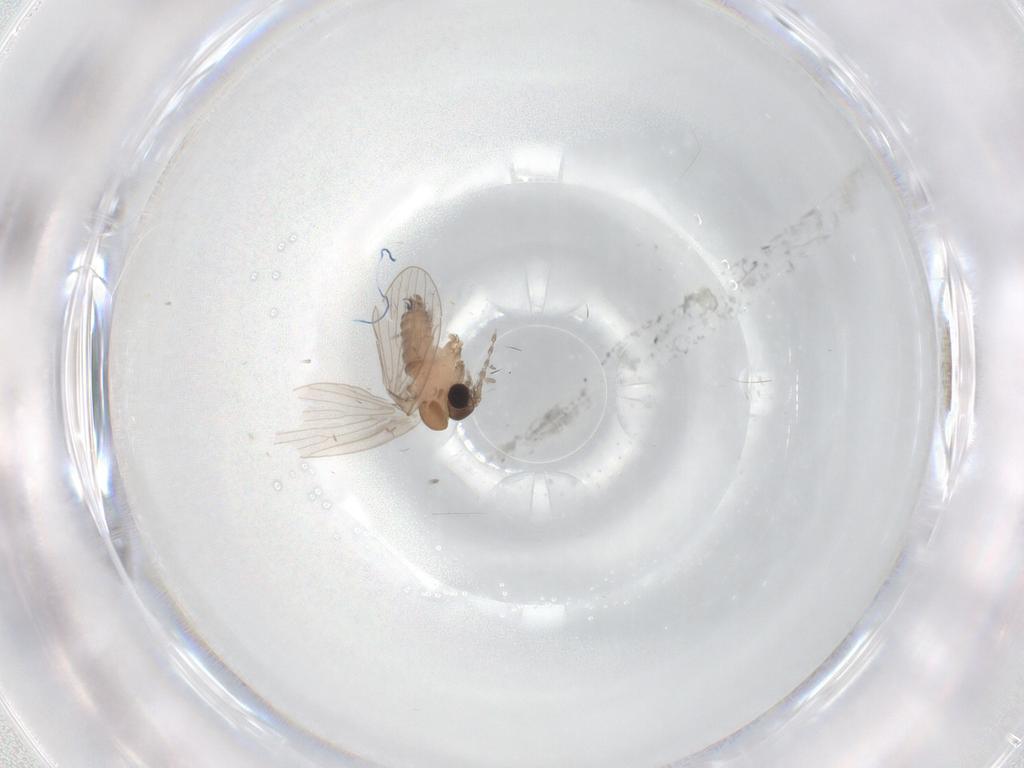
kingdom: Animalia
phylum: Arthropoda
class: Insecta
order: Diptera
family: Psychodidae
